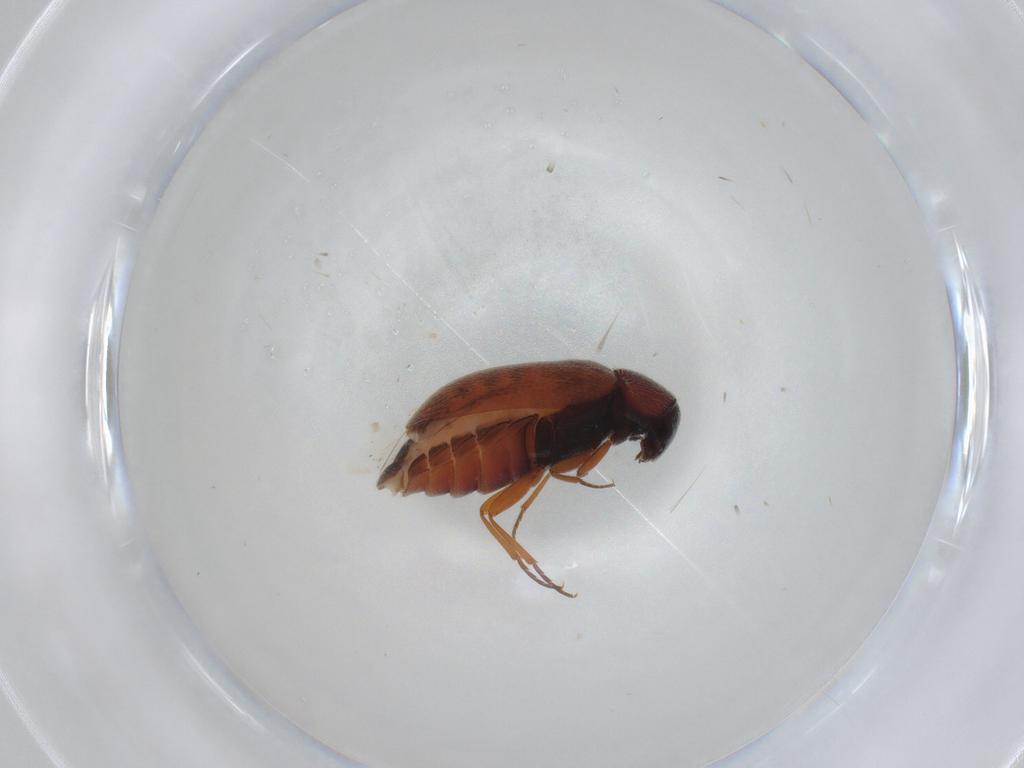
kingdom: Animalia
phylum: Arthropoda
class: Insecta
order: Coleoptera
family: Rhadalidae
